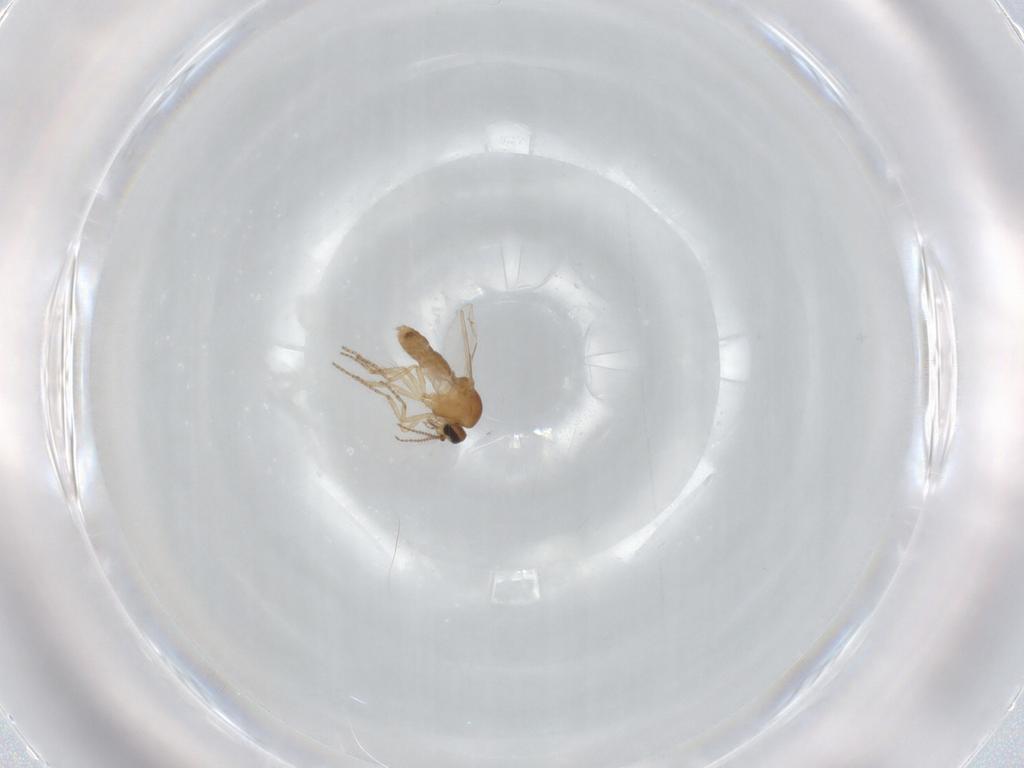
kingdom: Animalia
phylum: Arthropoda
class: Insecta
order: Diptera
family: Ceratopogonidae
